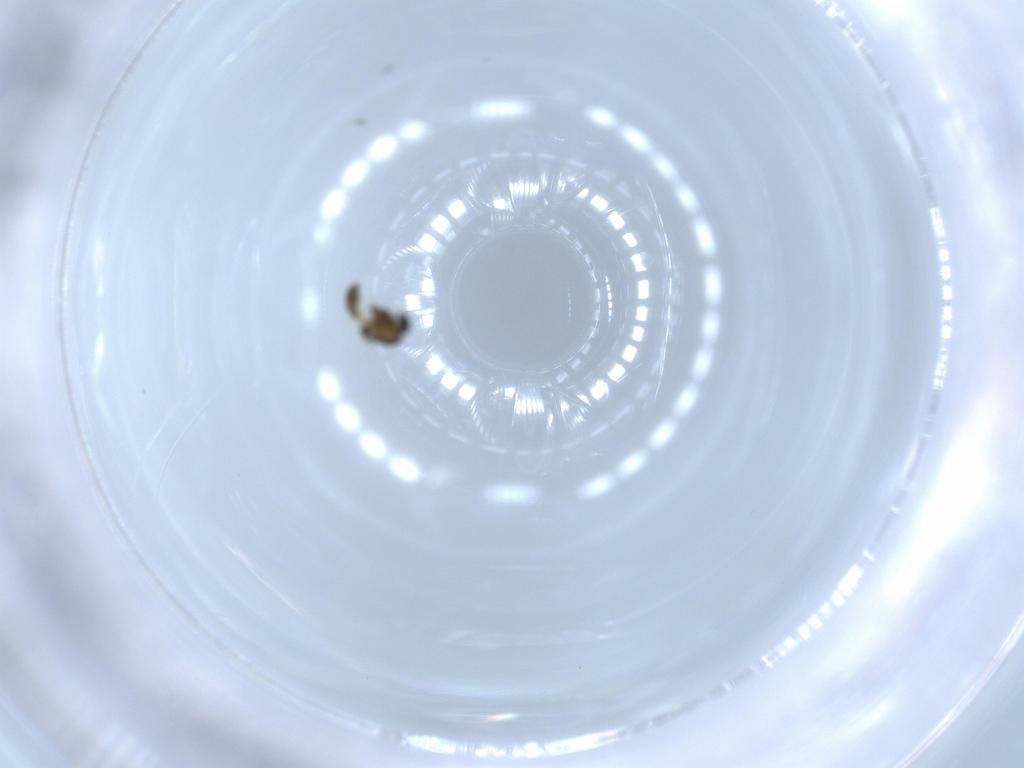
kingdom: Animalia
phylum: Arthropoda
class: Insecta
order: Diptera
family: Chironomidae
